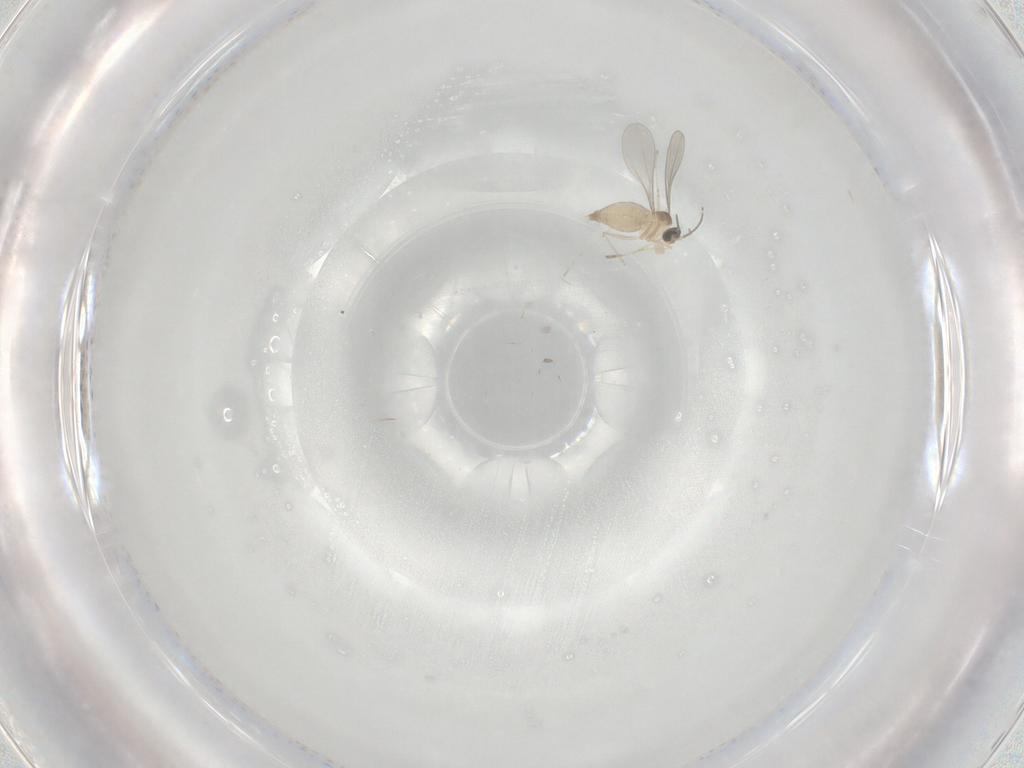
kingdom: Animalia
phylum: Arthropoda
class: Insecta
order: Diptera
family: Cecidomyiidae
